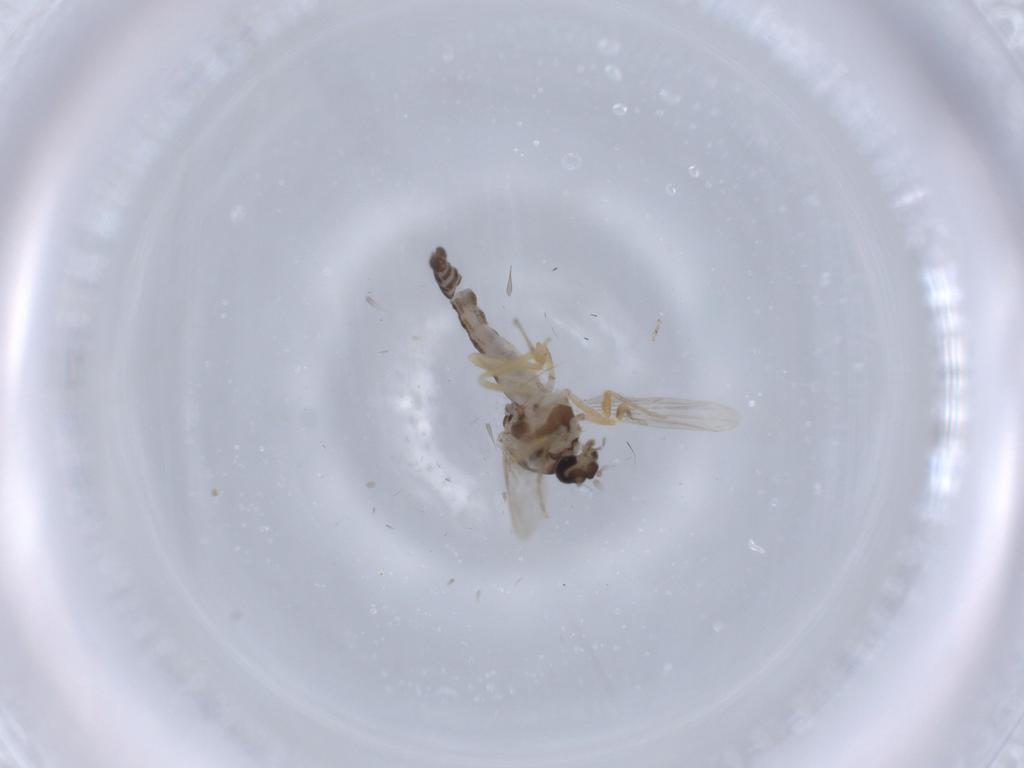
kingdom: Animalia
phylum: Arthropoda
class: Insecta
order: Diptera
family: Ceratopogonidae
